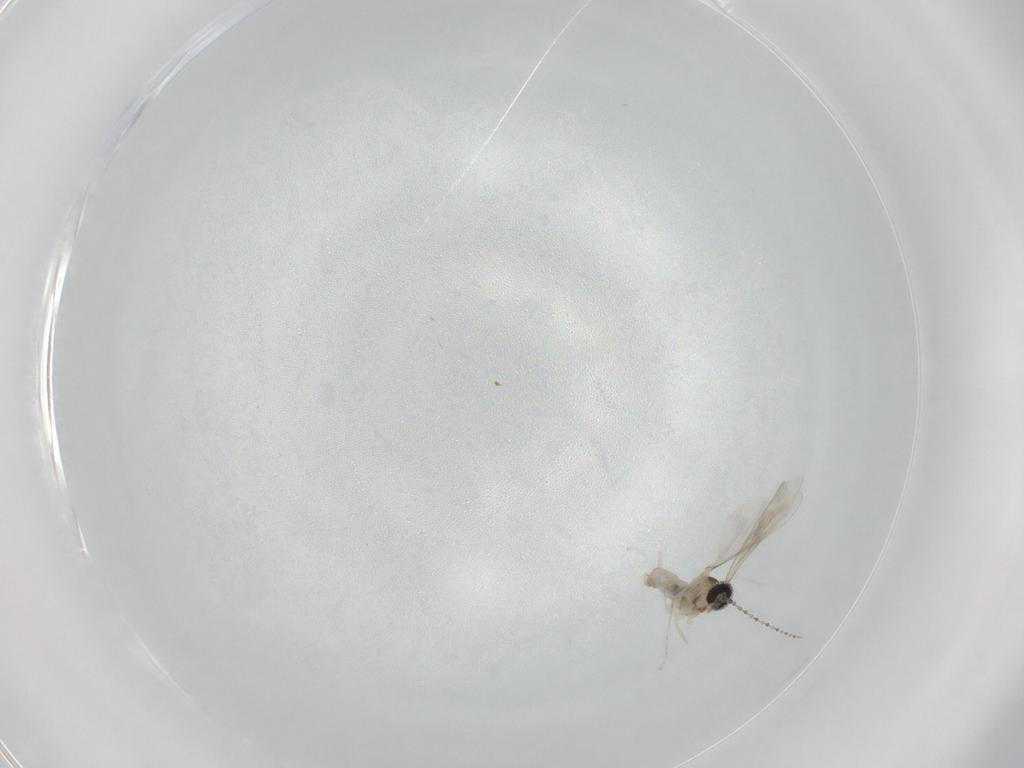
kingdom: Animalia
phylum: Arthropoda
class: Insecta
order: Diptera
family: Cecidomyiidae
